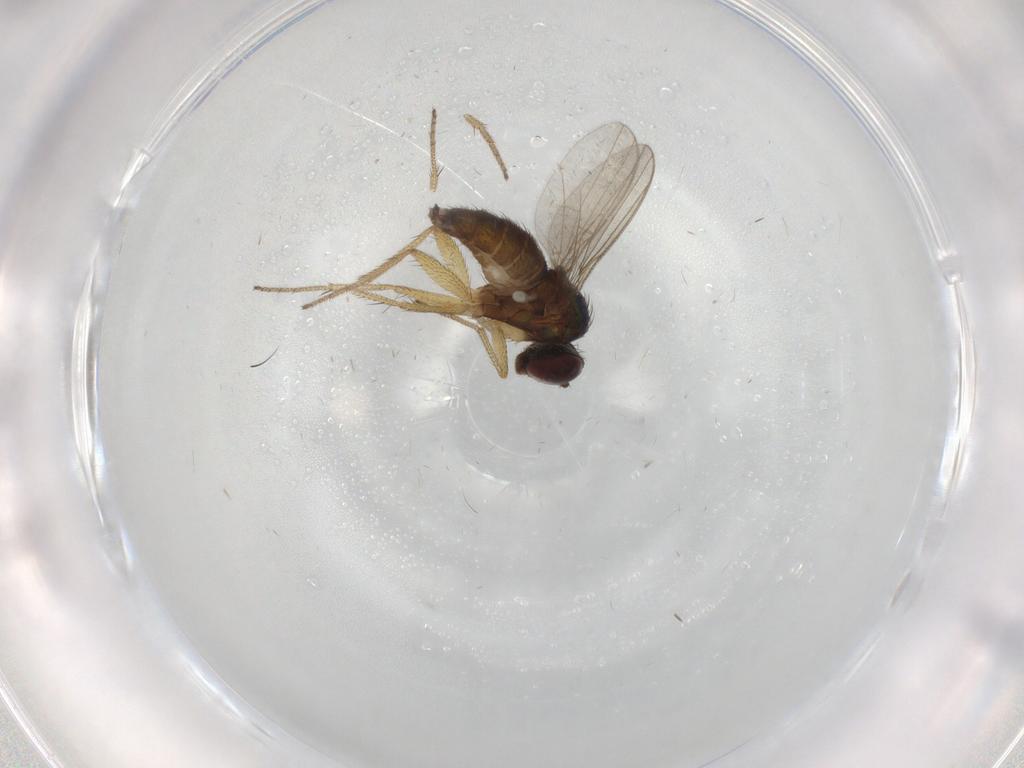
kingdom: Animalia
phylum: Arthropoda
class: Insecta
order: Diptera
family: Dolichopodidae
